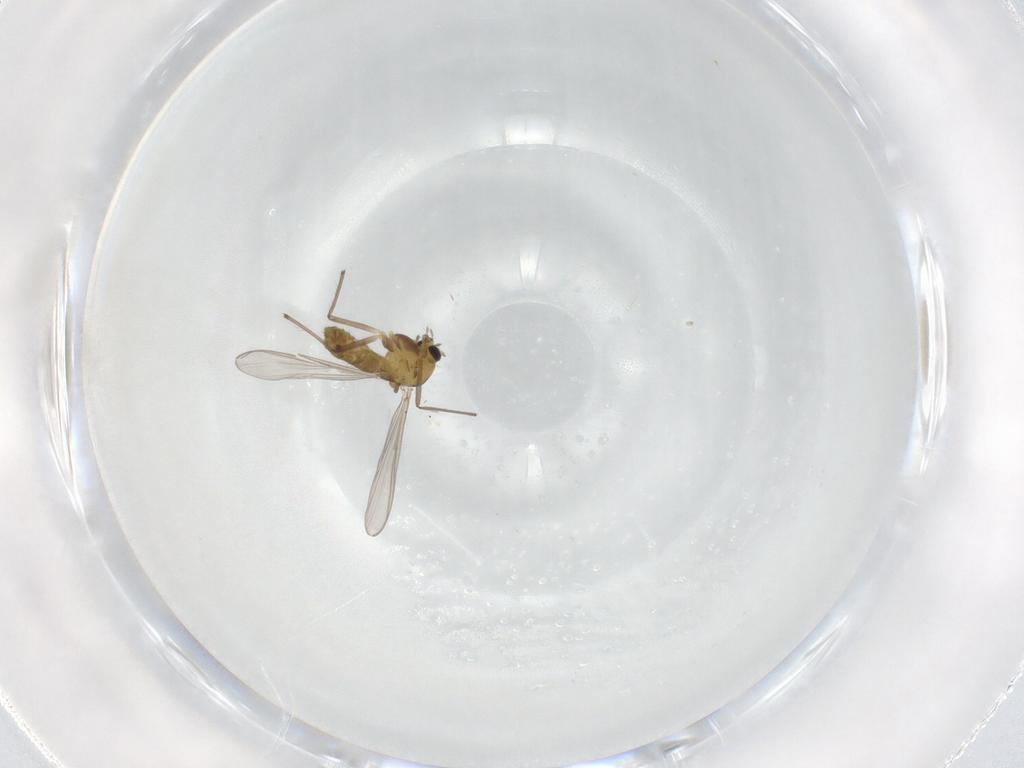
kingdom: Animalia
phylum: Arthropoda
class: Insecta
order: Diptera
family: Chironomidae
